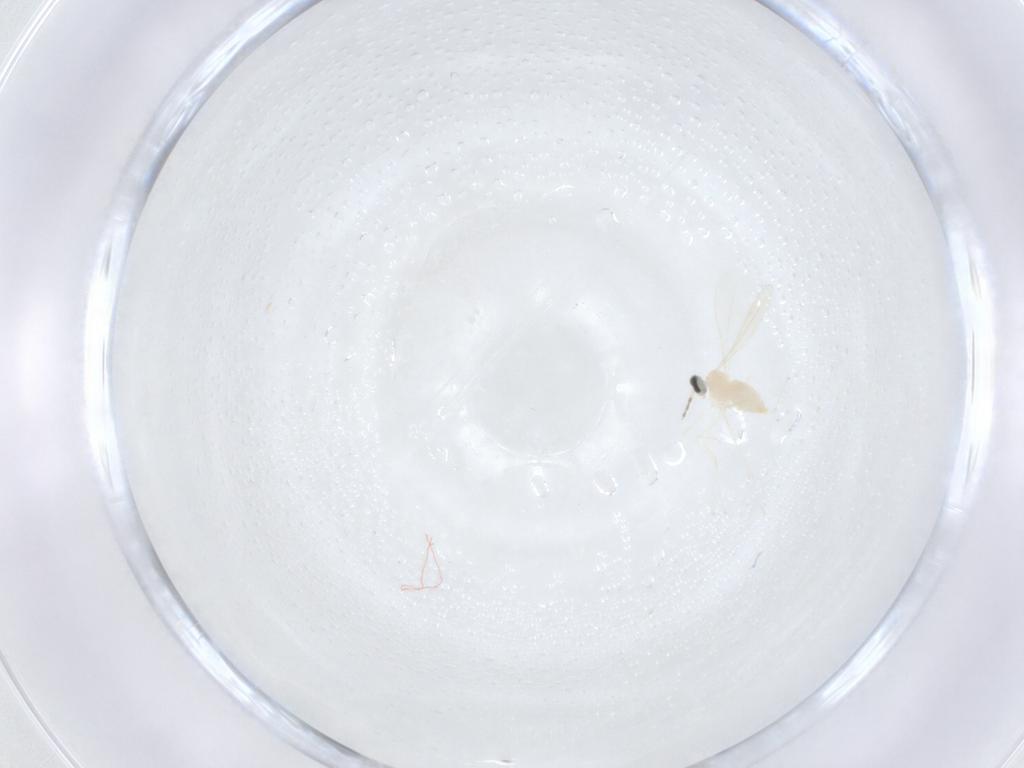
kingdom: Animalia
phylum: Arthropoda
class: Insecta
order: Diptera
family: Cecidomyiidae
